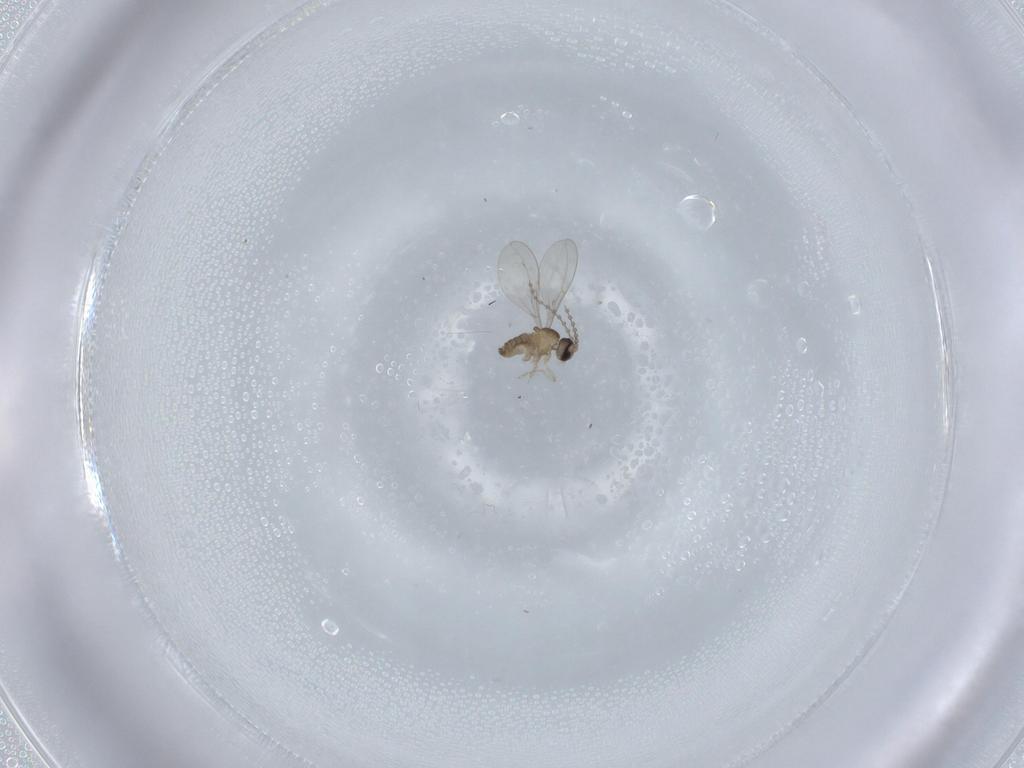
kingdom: Animalia
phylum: Arthropoda
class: Insecta
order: Diptera
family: Cecidomyiidae
